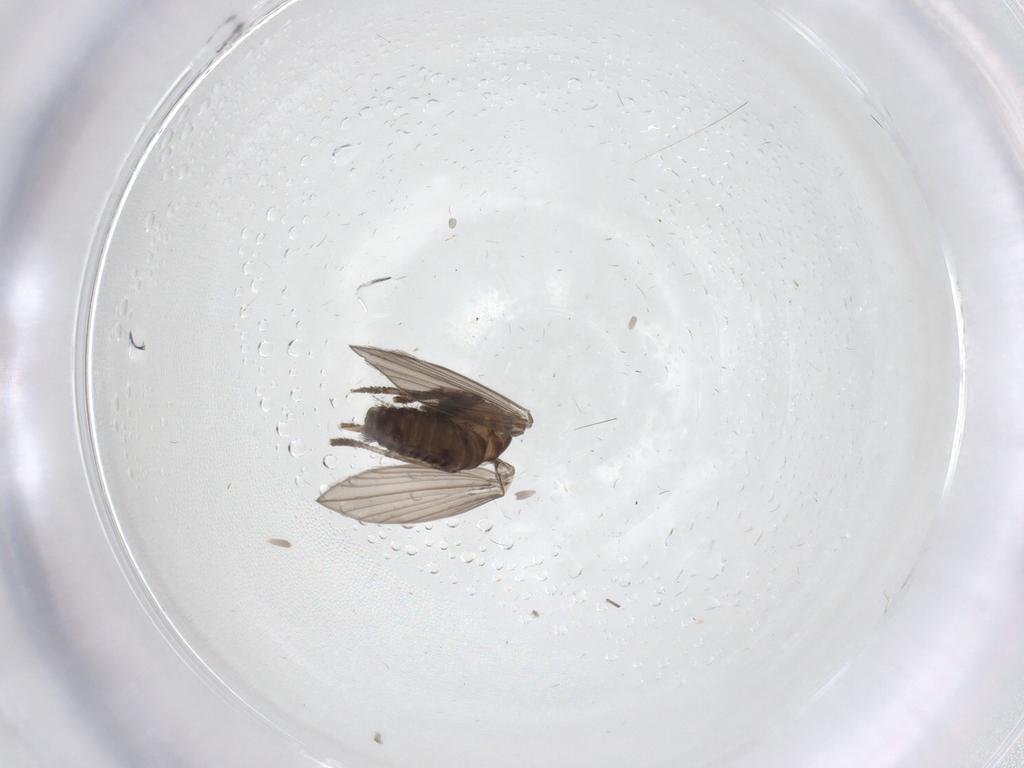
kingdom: Animalia
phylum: Arthropoda
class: Insecta
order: Diptera
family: Psychodidae
